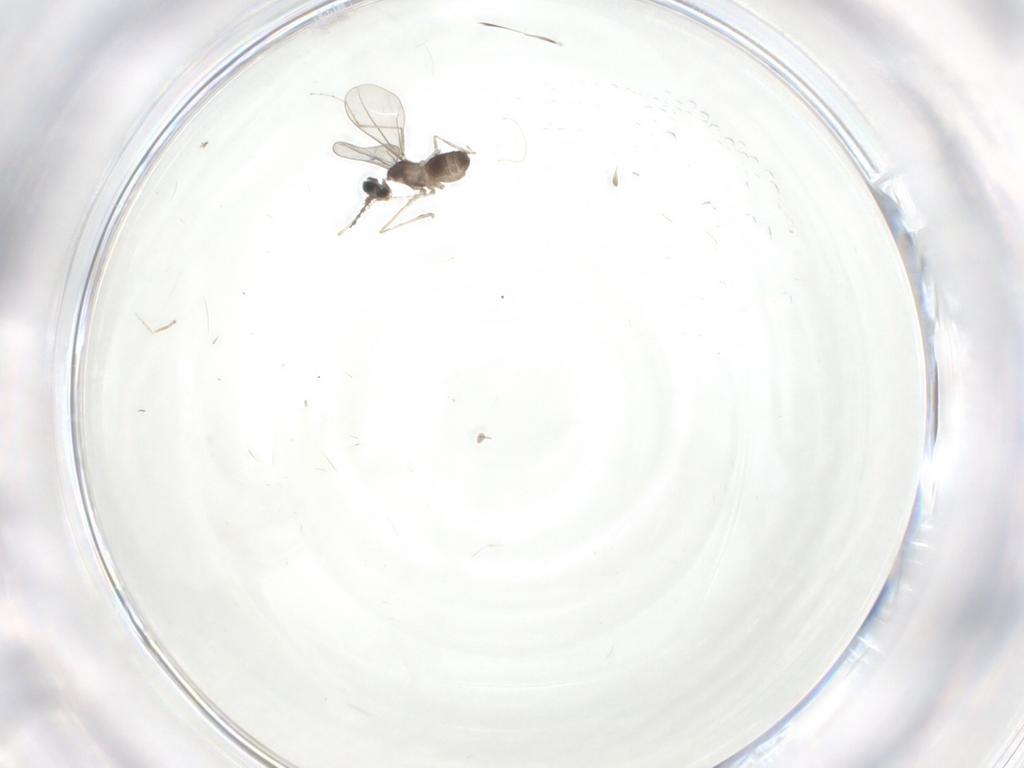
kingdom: Animalia
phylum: Arthropoda
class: Insecta
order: Diptera
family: Cecidomyiidae
